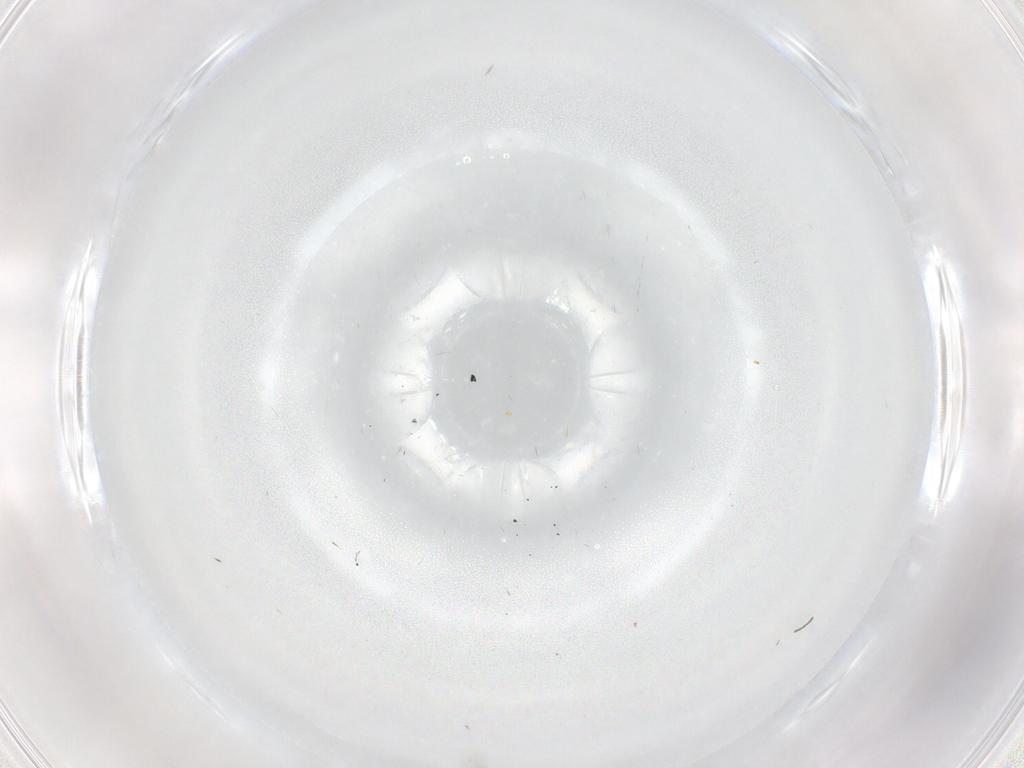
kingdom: Animalia
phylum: Arthropoda
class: Insecta
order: Diptera
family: Cecidomyiidae
